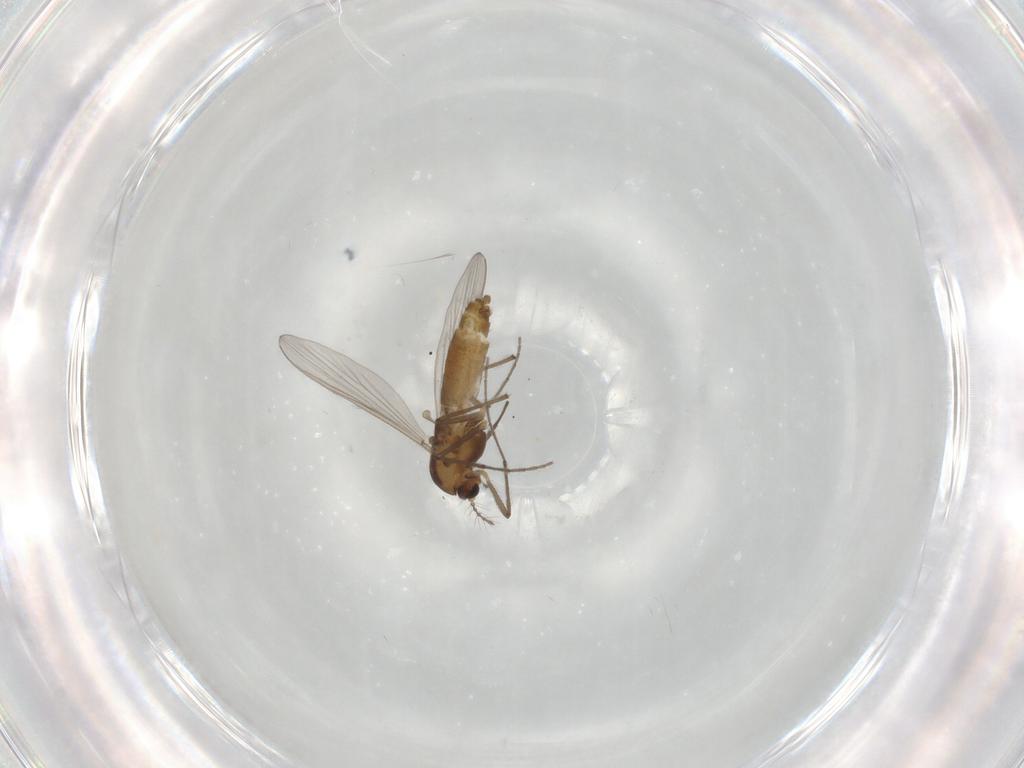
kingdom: Animalia
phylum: Arthropoda
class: Insecta
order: Diptera
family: Chironomidae
